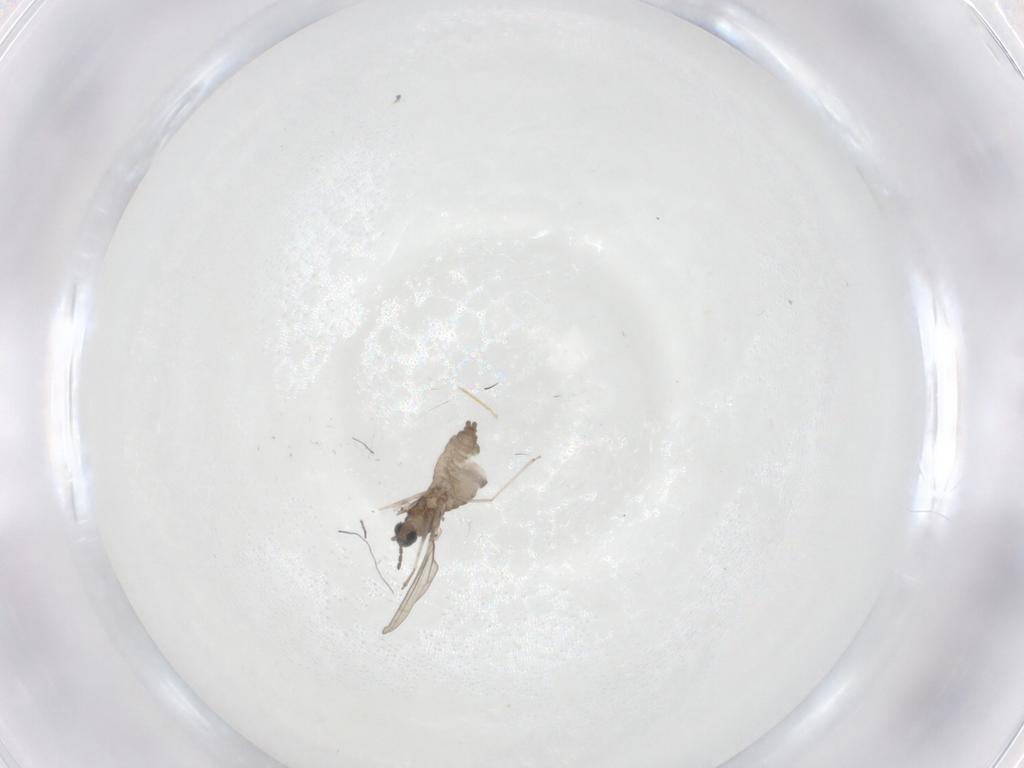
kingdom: Animalia
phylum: Arthropoda
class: Insecta
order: Diptera
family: Cecidomyiidae
